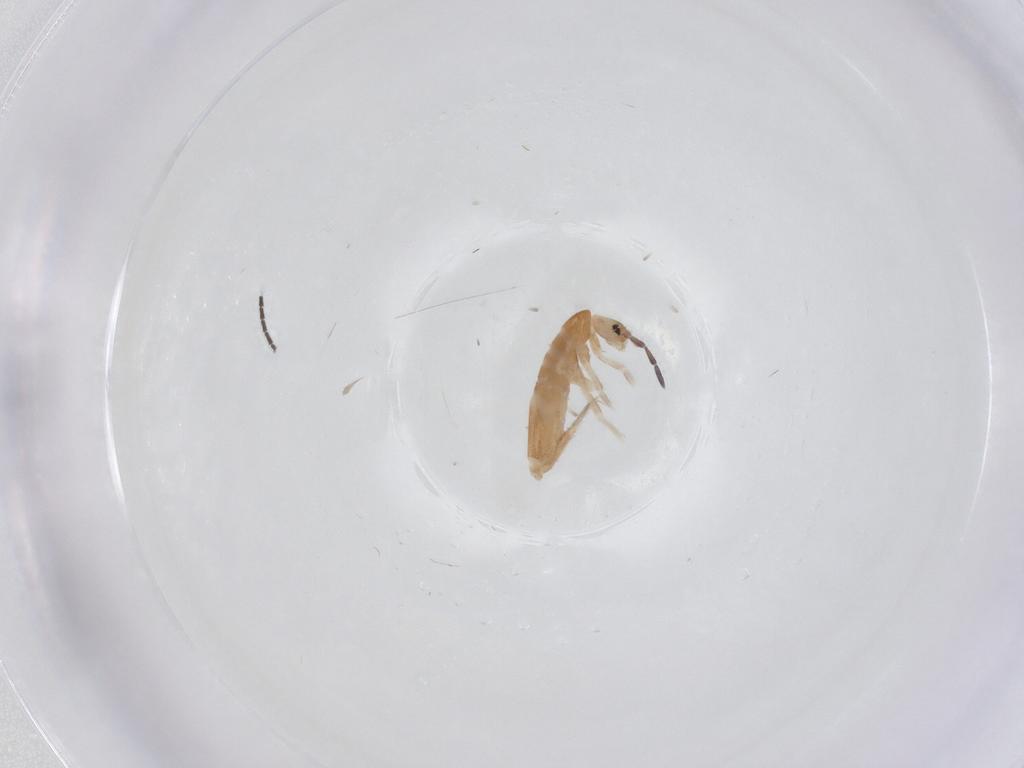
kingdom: Animalia
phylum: Arthropoda
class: Collembola
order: Entomobryomorpha
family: Entomobryidae
